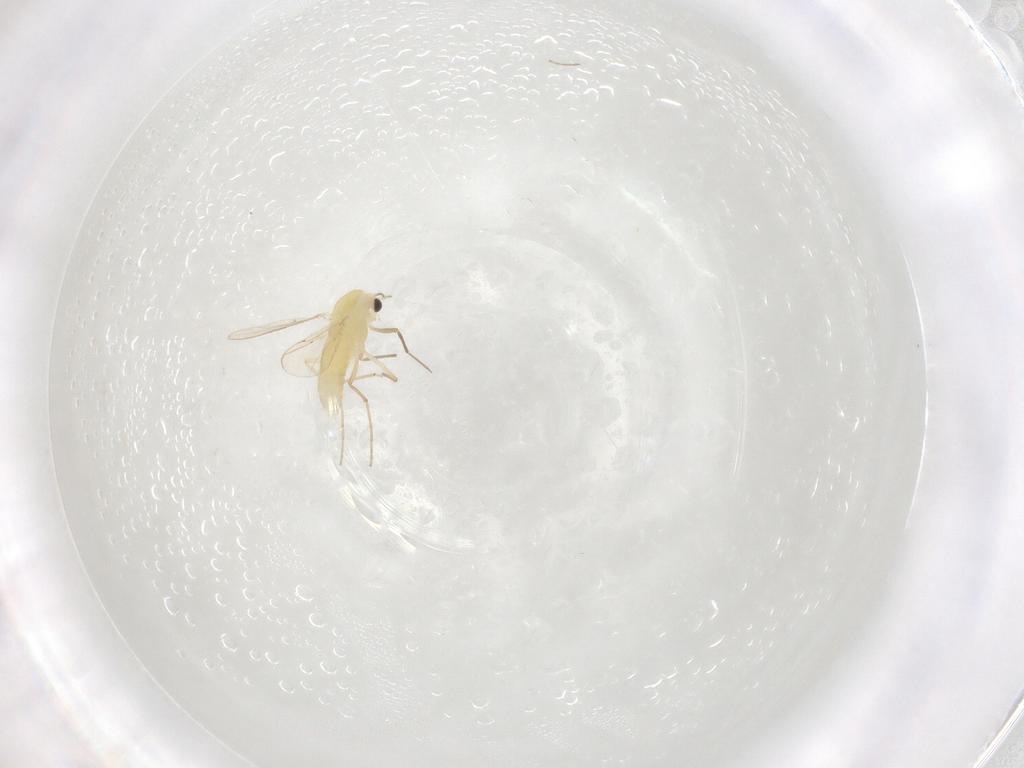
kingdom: Animalia
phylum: Arthropoda
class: Insecta
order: Diptera
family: Chironomidae
